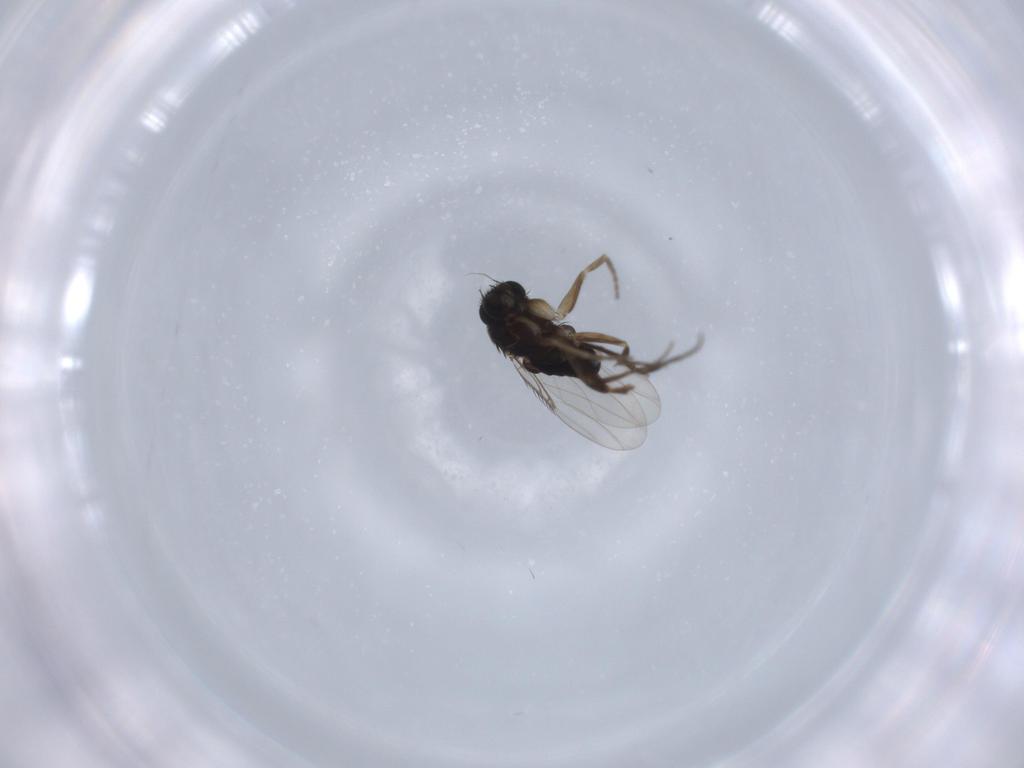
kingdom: Animalia
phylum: Arthropoda
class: Insecta
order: Diptera
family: Phoridae
